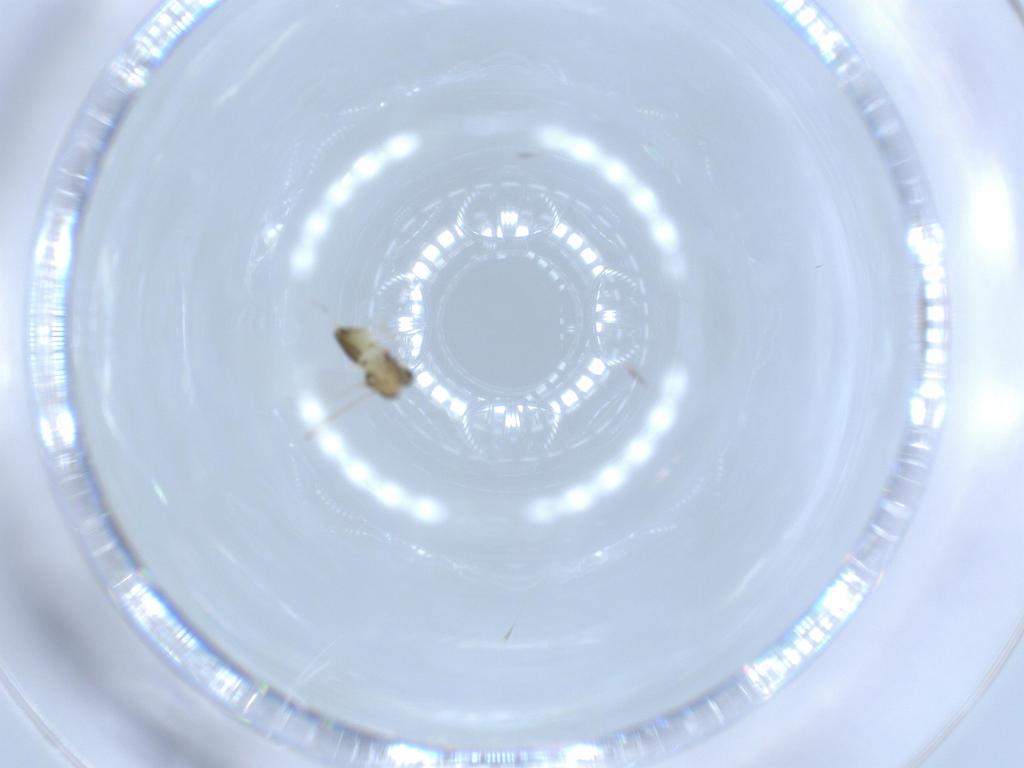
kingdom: Animalia
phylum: Arthropoda
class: Insecta
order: Diptera
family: Chironomidae
